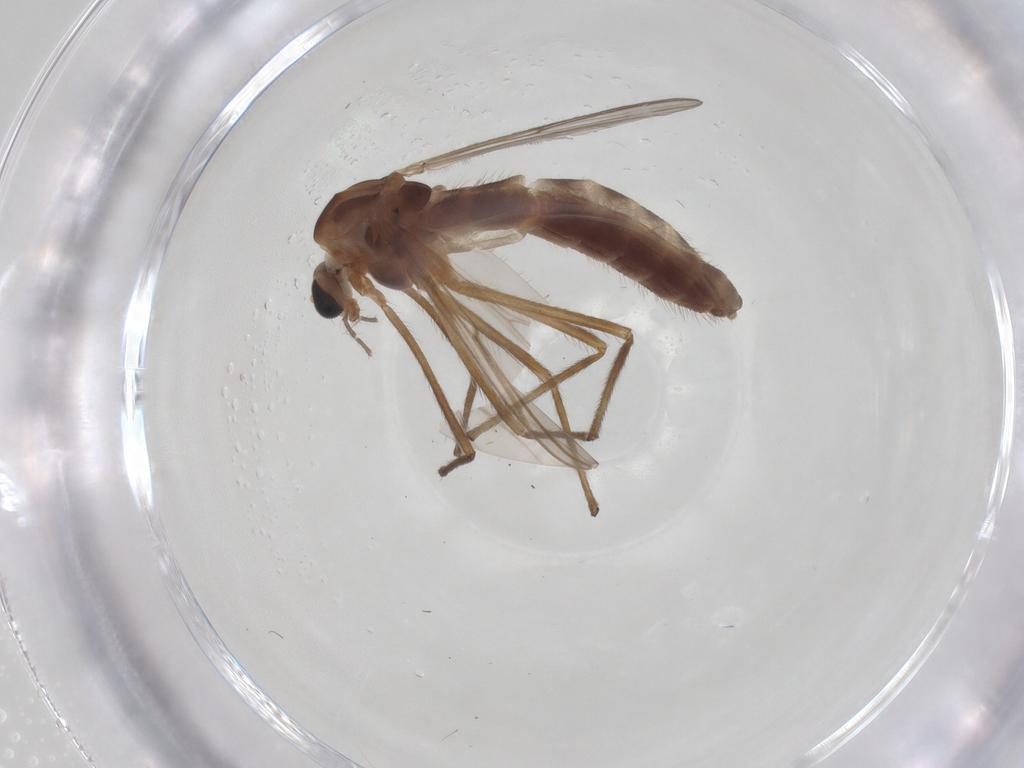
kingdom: Animalia
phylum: Arthropoda
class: Insecta
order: Diptera
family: Chironomidae
